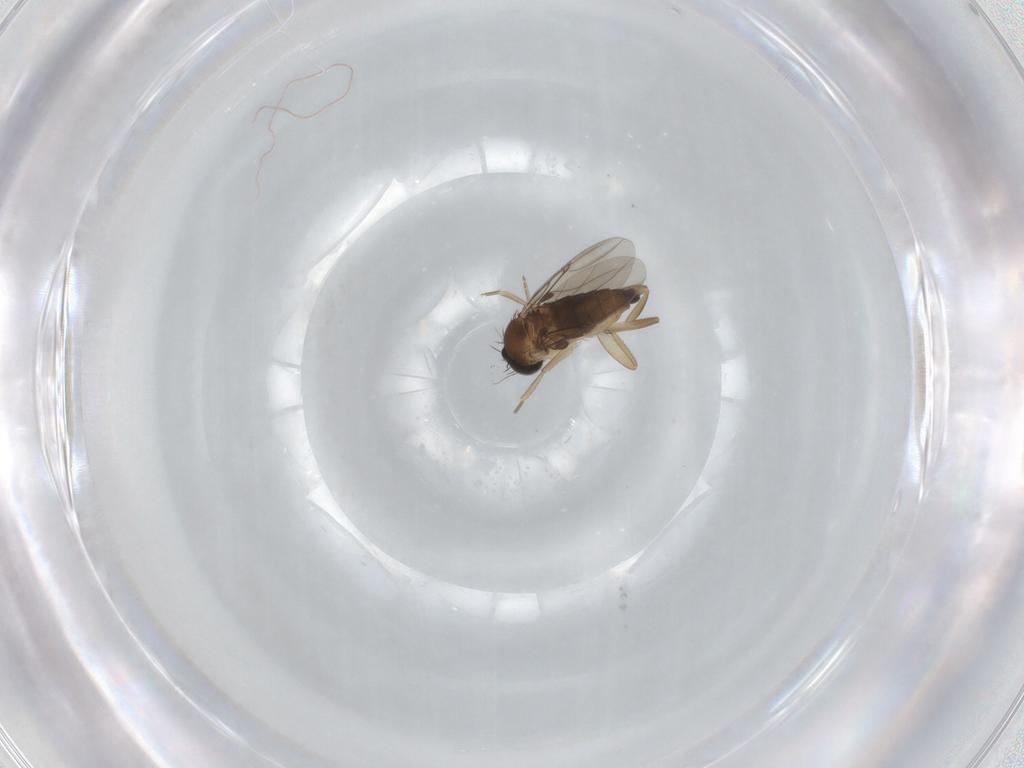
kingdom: Animalia
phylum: Arthropoda
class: Insecta
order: Diptera
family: Phoridae
